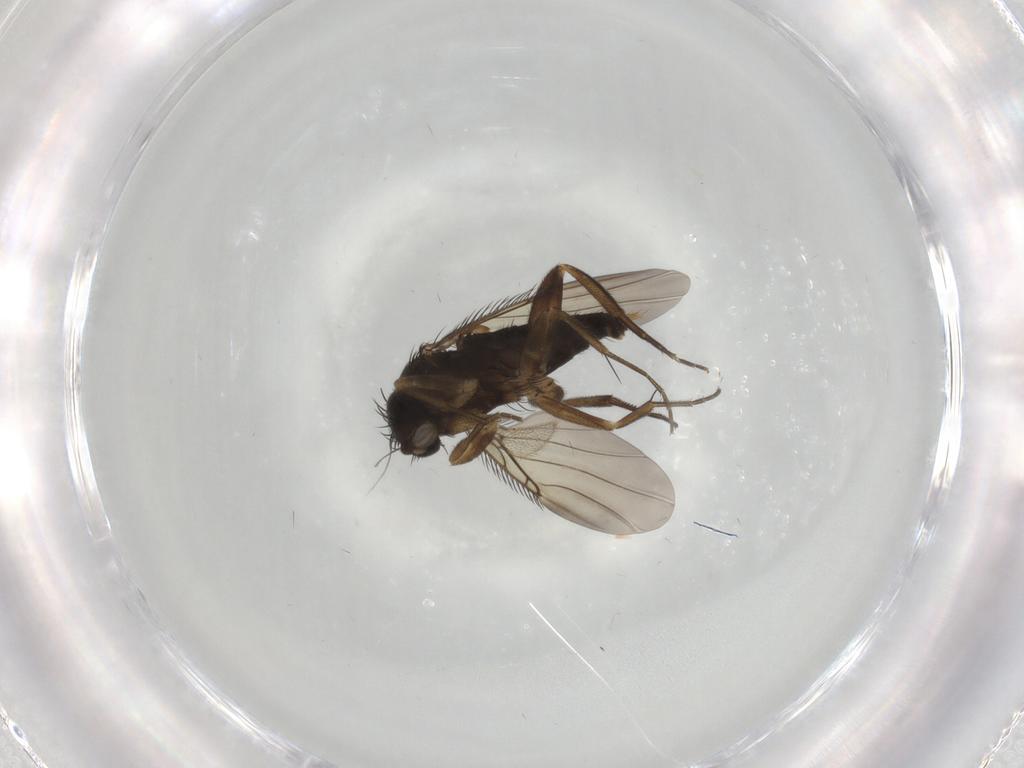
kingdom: Animalia
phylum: Arthropoda
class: Insecta
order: Diptera
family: Phoridae
